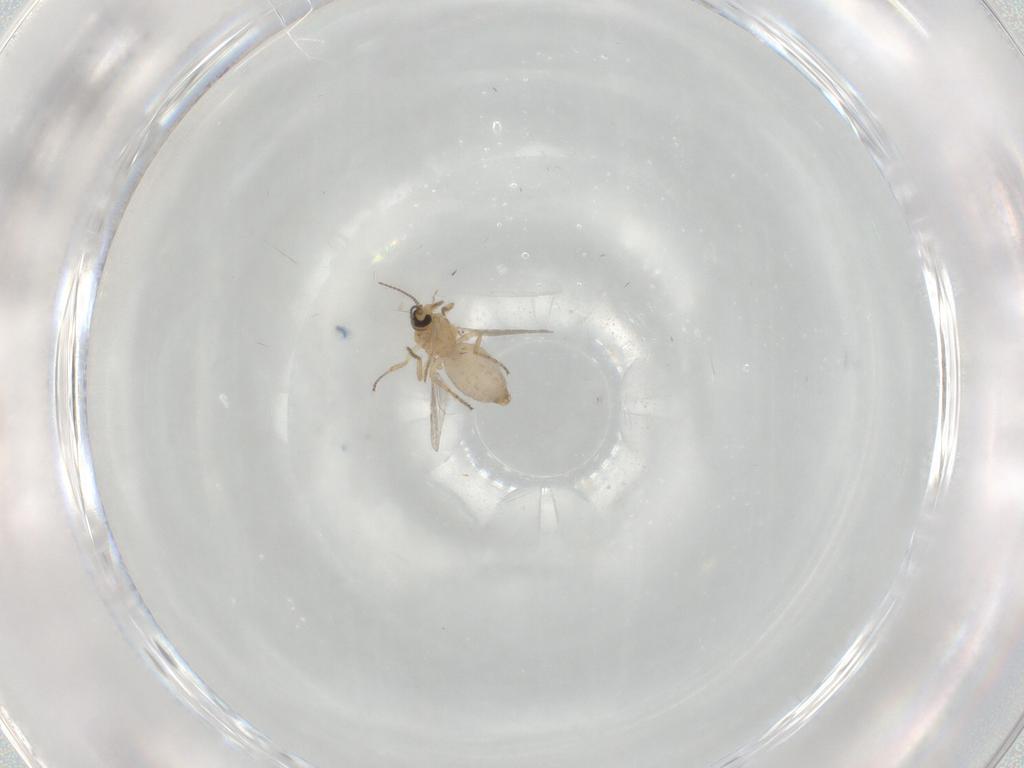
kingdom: Animalia
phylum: Arthropoda
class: Insecta
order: Diptera
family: Ceratopogonidae
